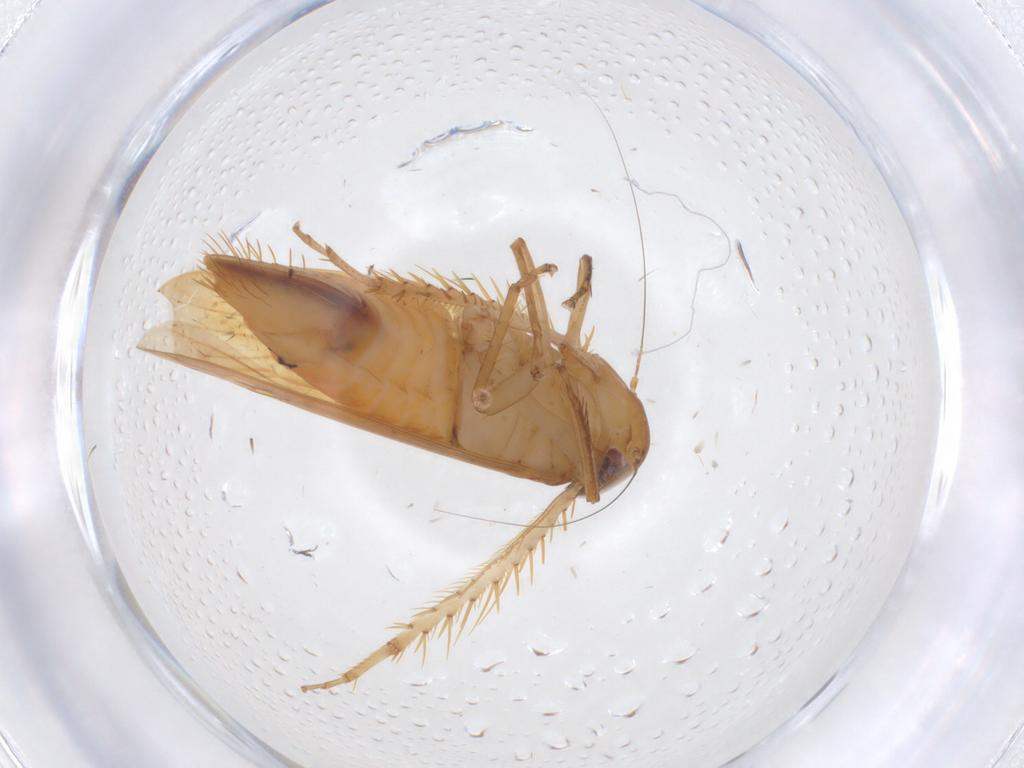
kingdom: Animalia
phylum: Arthropoda
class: Insecta
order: Hemiptera
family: Cicadellidae
